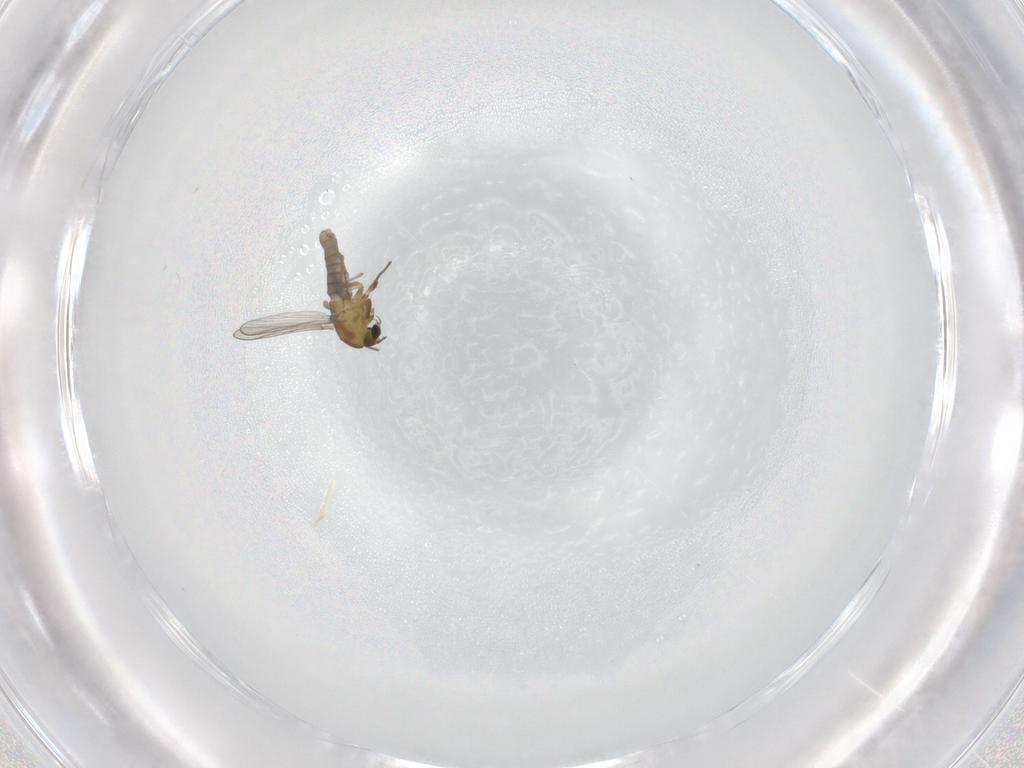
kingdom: Animalia
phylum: Arthropoda
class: Insecta
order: Diptera
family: Chironomidae
